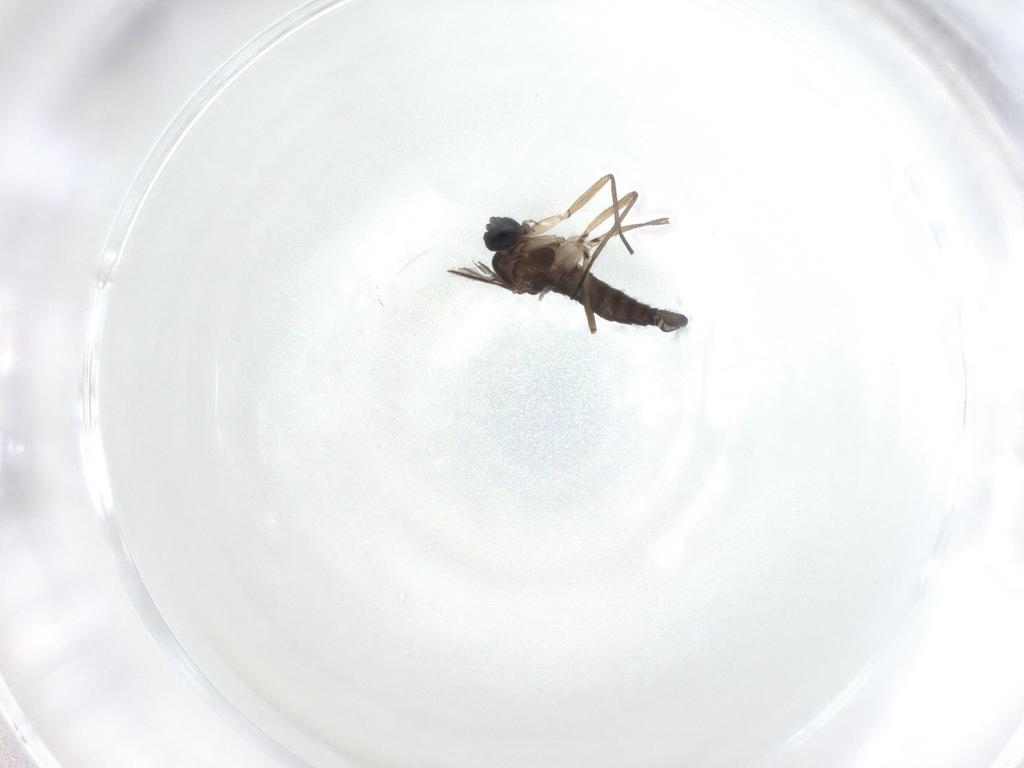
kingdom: Animalia
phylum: Arthropoda
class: Insecta
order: Diptera
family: Sciaridae
